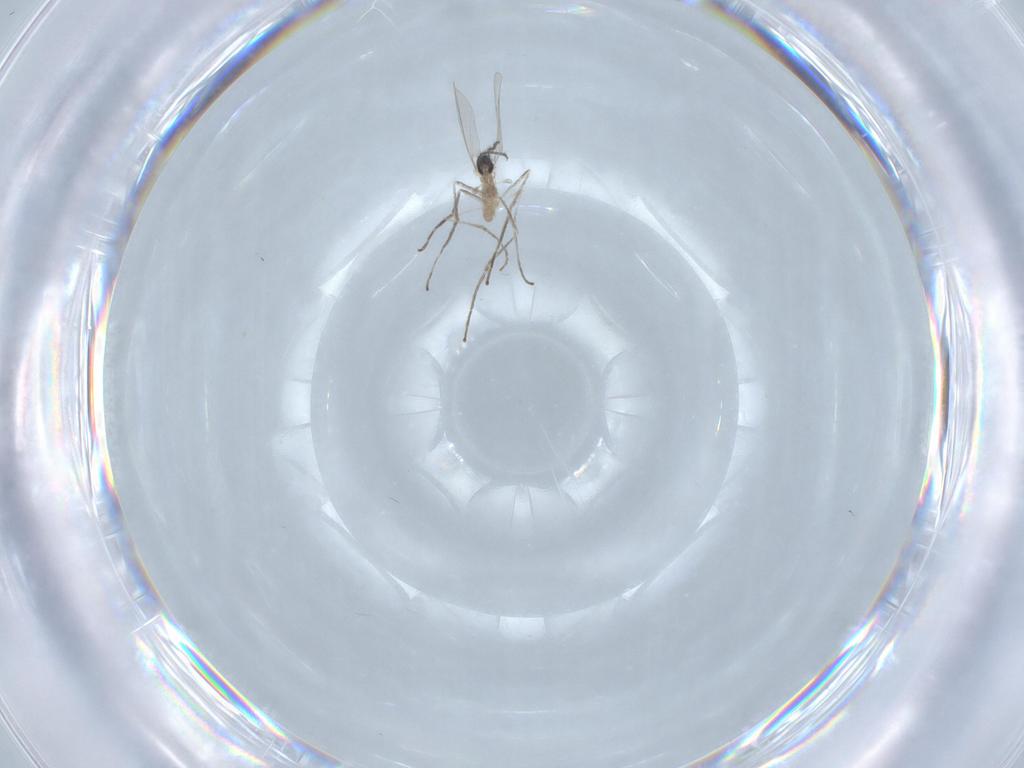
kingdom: Animalia
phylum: Arthropoda
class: Insecta
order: Diptera
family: Cecidomyiidae
